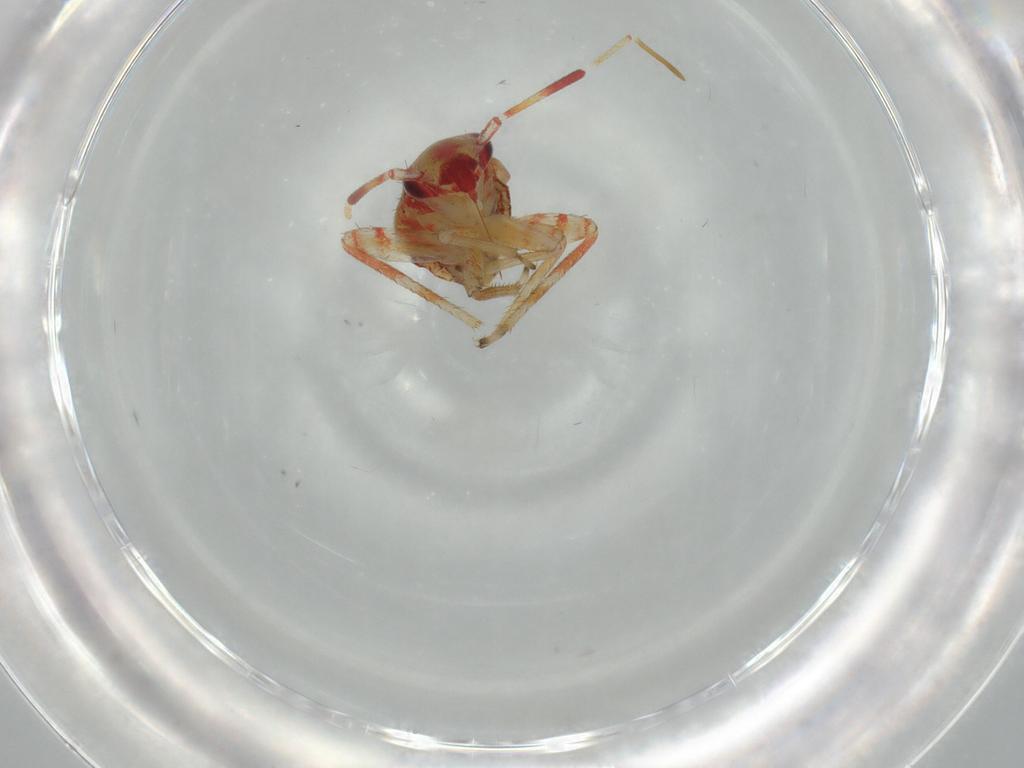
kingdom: Animalia
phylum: Arthropoda
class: Insecta
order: Hemiptera
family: Miridae
